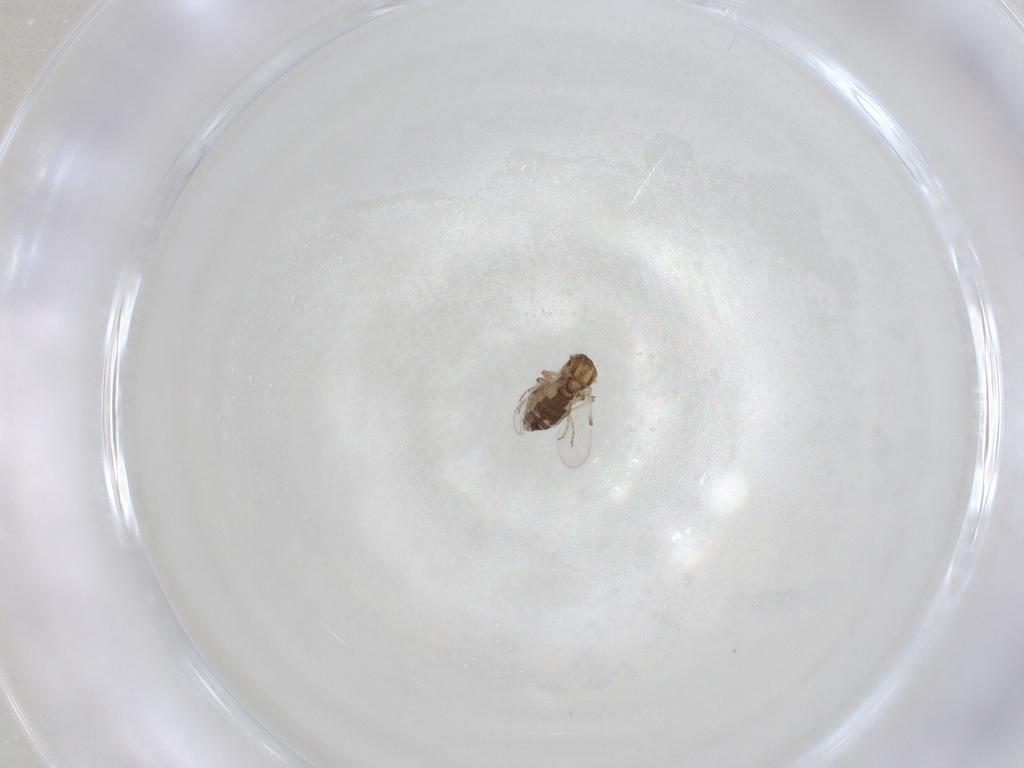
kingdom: Animalia
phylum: Arthropoda
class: Insecta
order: Diptera
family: Ceratopogonidae
